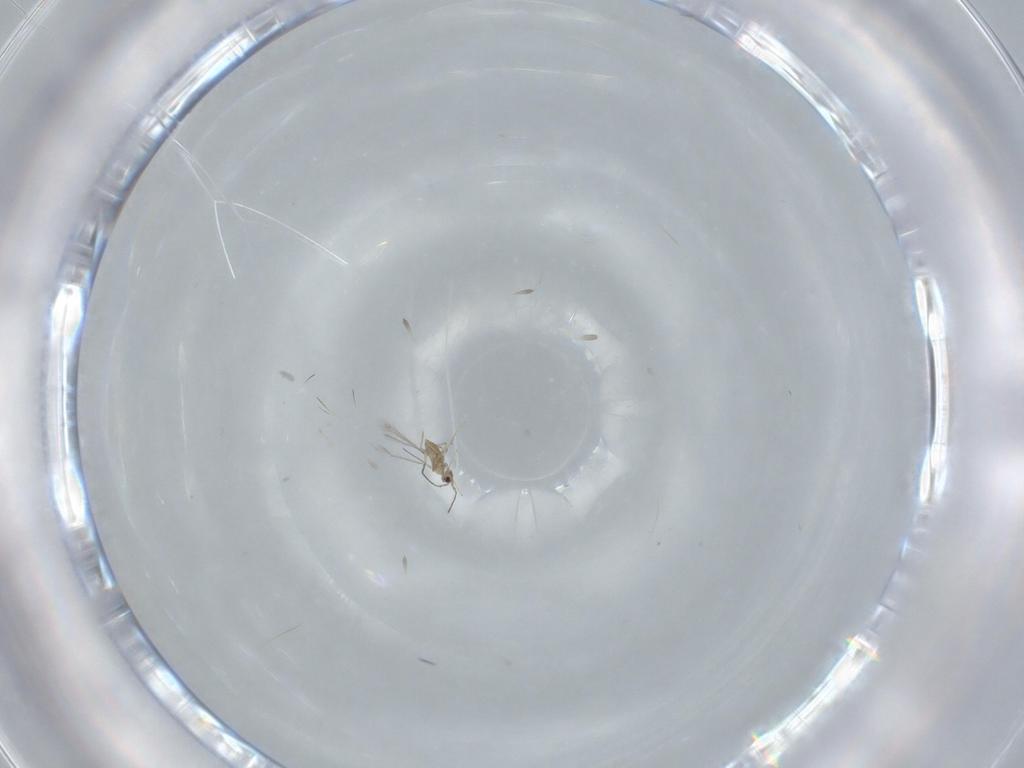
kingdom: Animalia
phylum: Arthropoda
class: Insecta
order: Hymenoptera
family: Mymaridae
